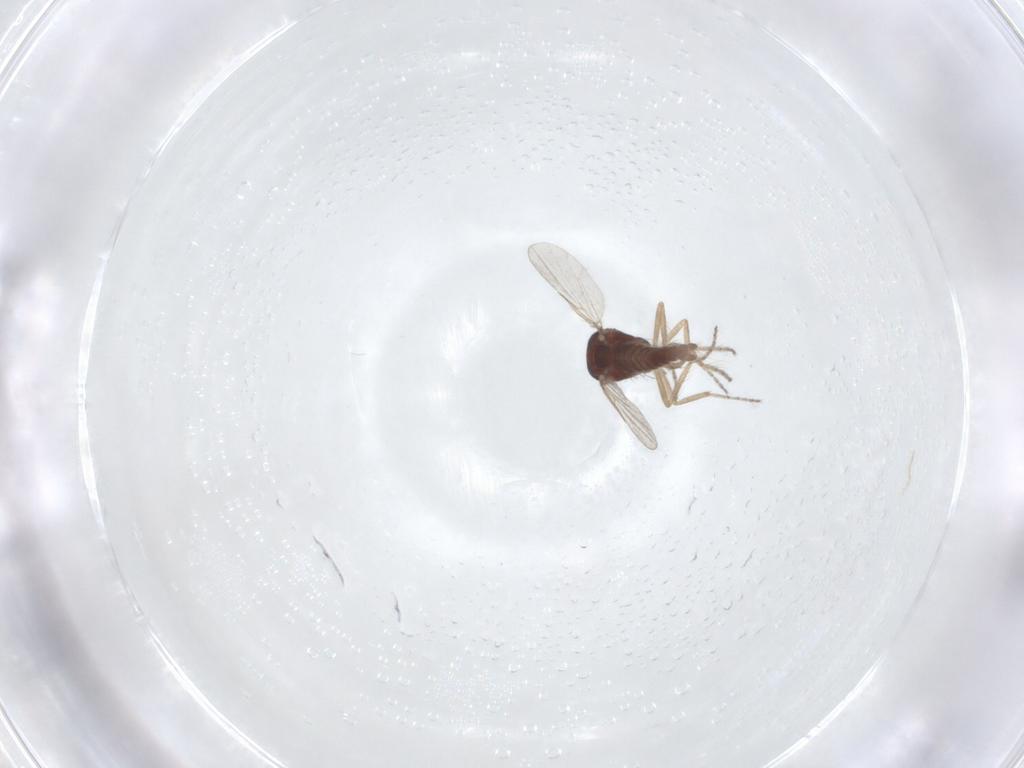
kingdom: Animalia
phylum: Arthropoda
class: Insecta
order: Diptera
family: Ceratopogonidae
